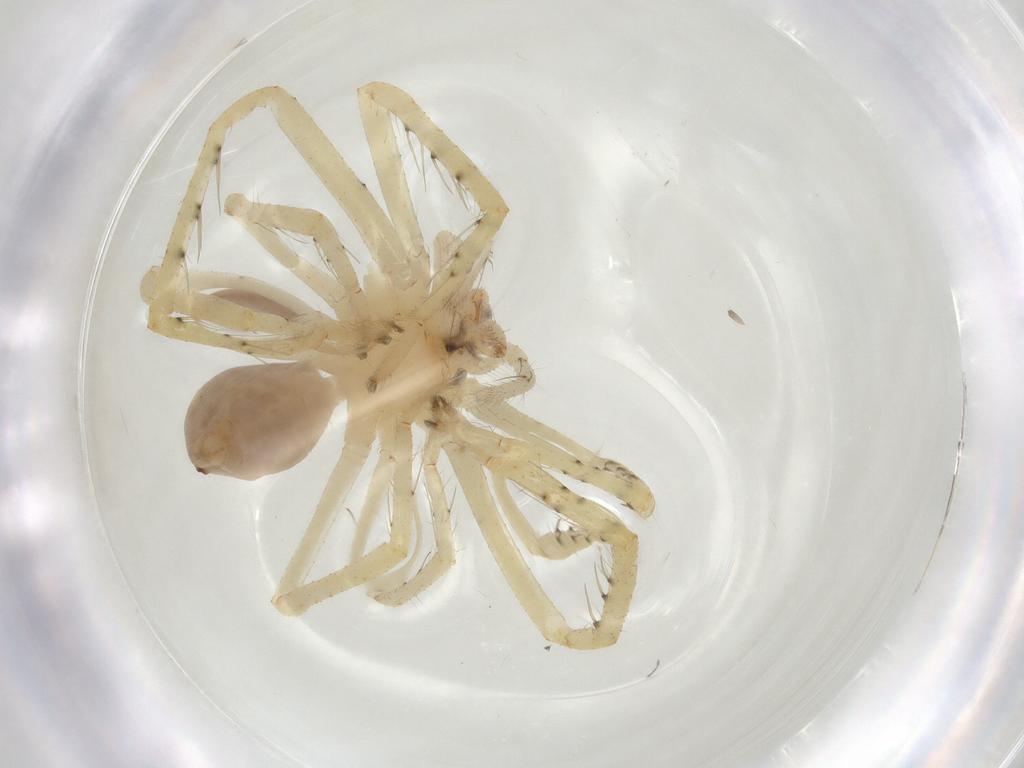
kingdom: Animalia
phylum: Arthropoda
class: Arachnida
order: Araneae
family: Sparassidae
